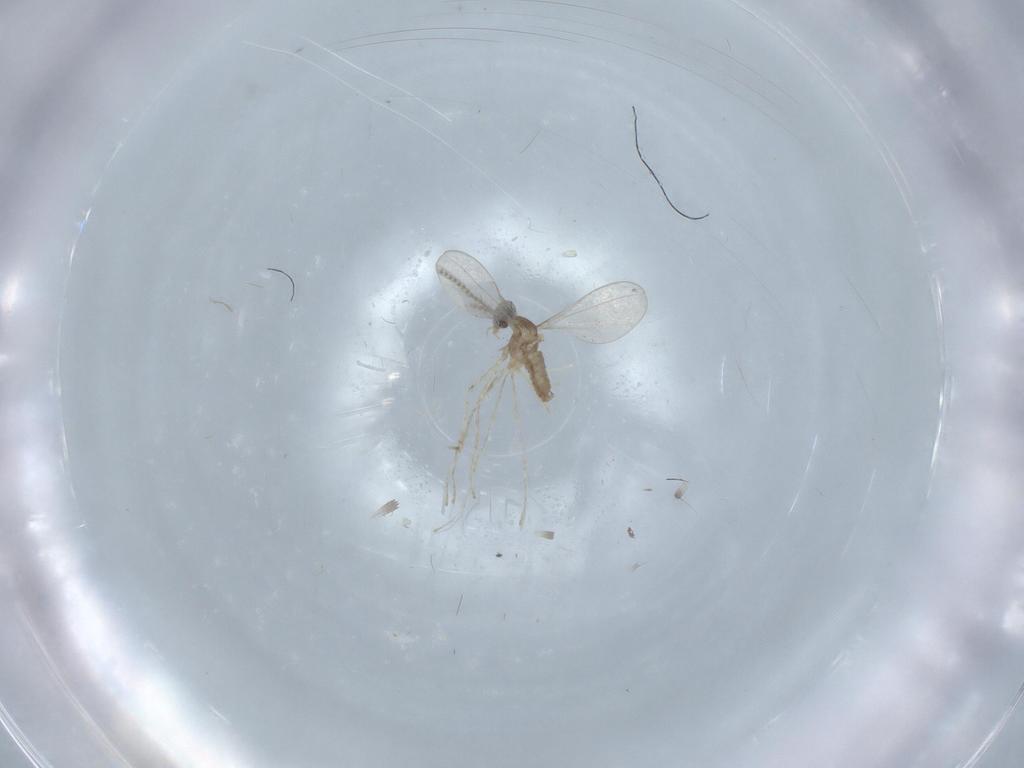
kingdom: Animalia
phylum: Arthropoda
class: Insecta
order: Diptera
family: Cecidomyiidae
